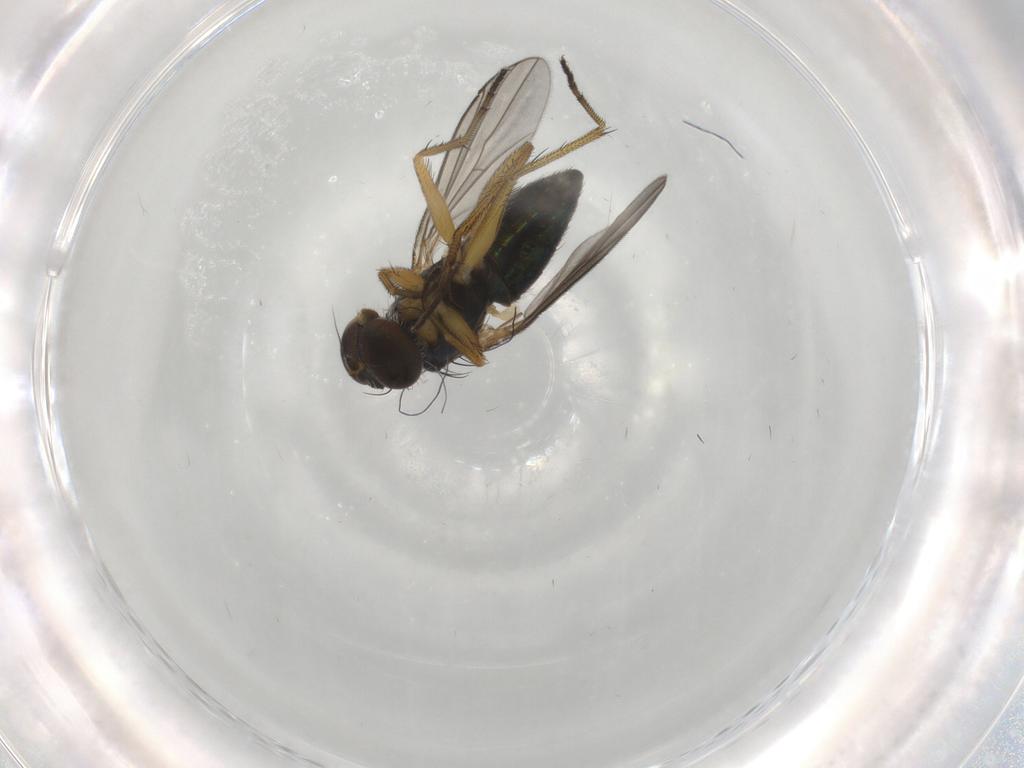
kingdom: Animalia
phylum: Arthropoda
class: Insecta
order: Diptera
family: Dolichopodidae
